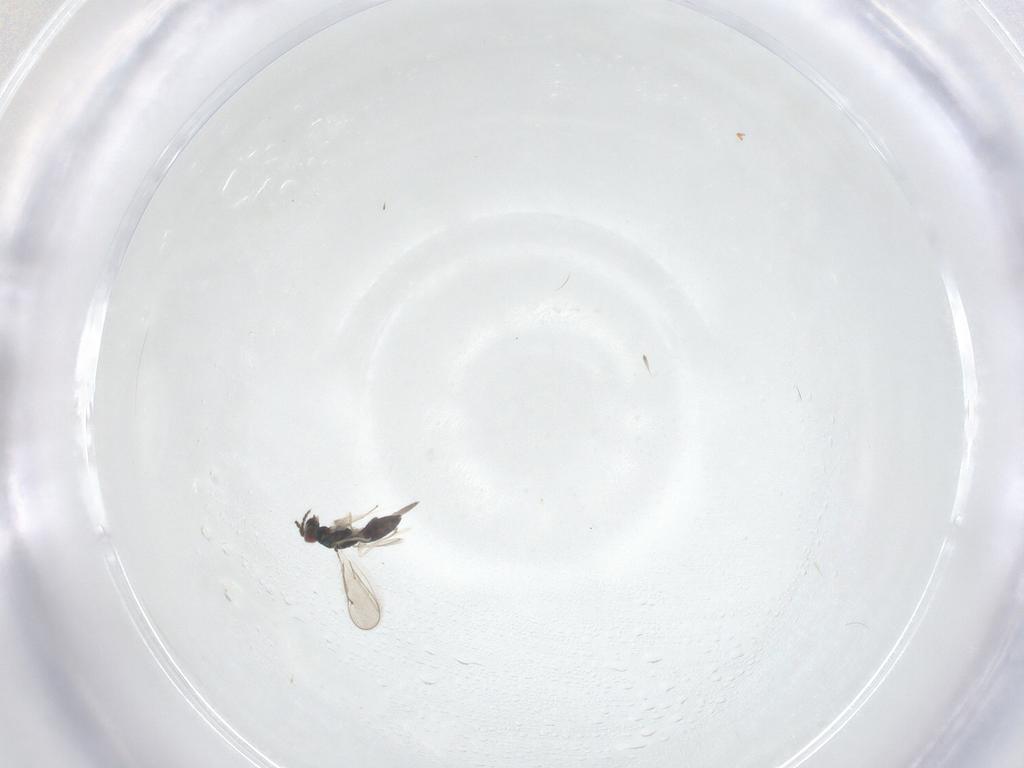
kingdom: Animalia
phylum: Arthropoda
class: Insecta
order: Hymenoptera
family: Eulophidae
